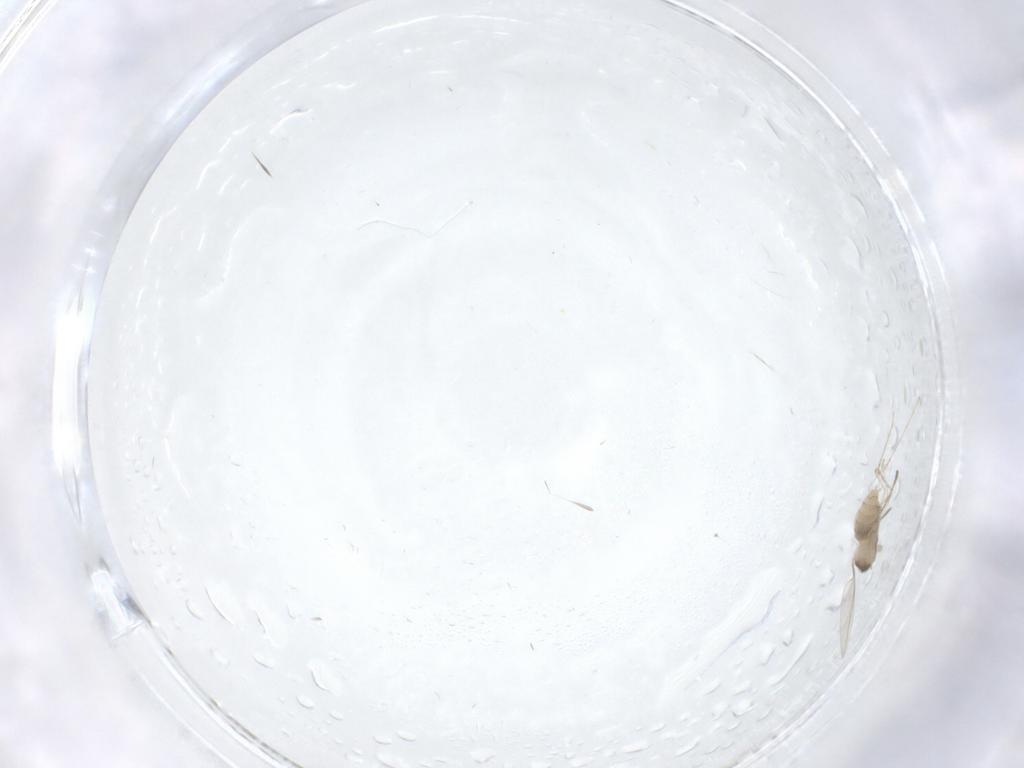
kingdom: Animalia
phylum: Arthropoda
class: Insecta
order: Diptera
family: Cecidomyiidae
